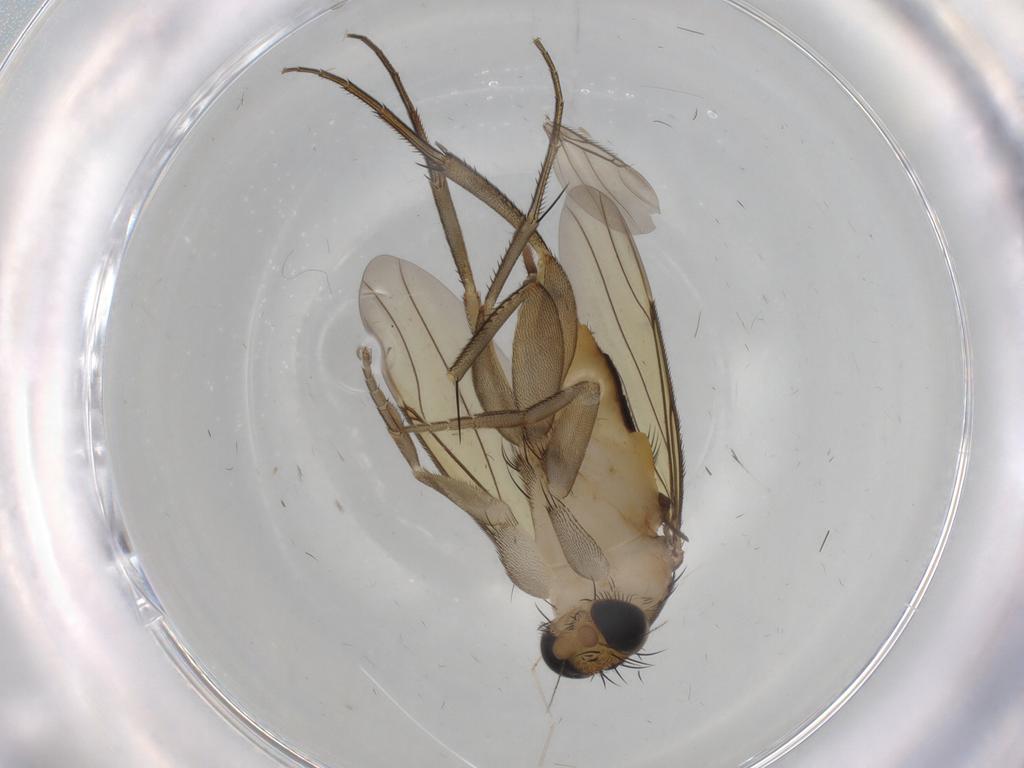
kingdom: Animalia
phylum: Arthropoda
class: Insecta
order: Diptera
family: Phoridae
